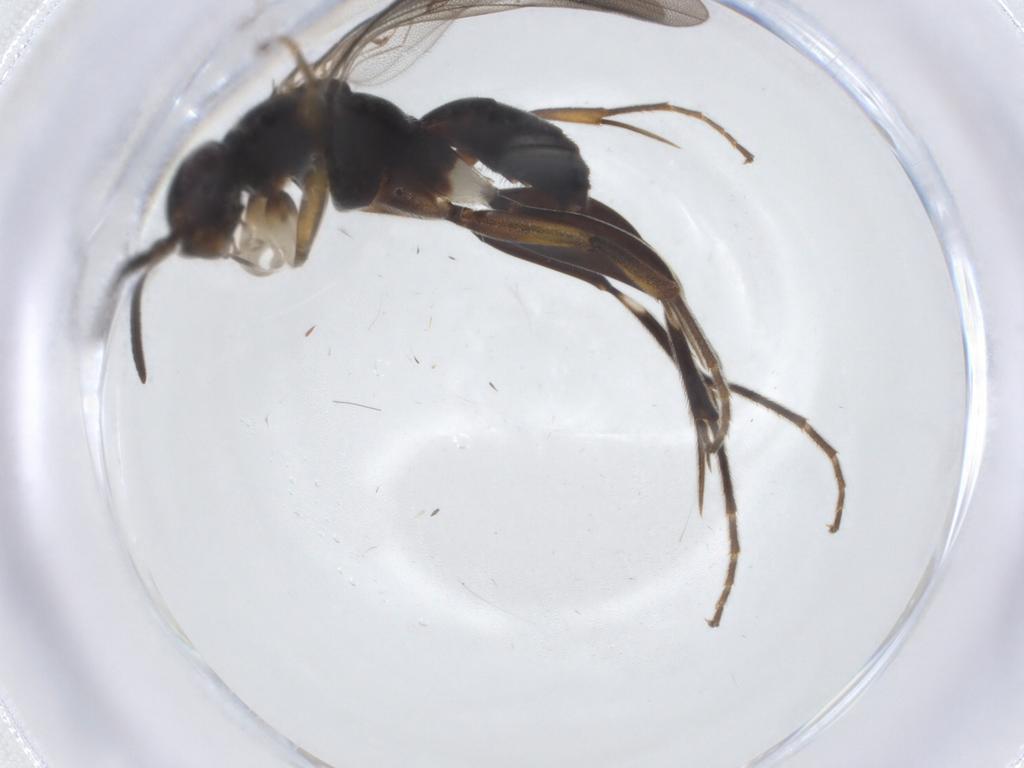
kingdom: Animalia
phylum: Arthropoda
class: Insecta
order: Hymenoptera
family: Pompilidae
